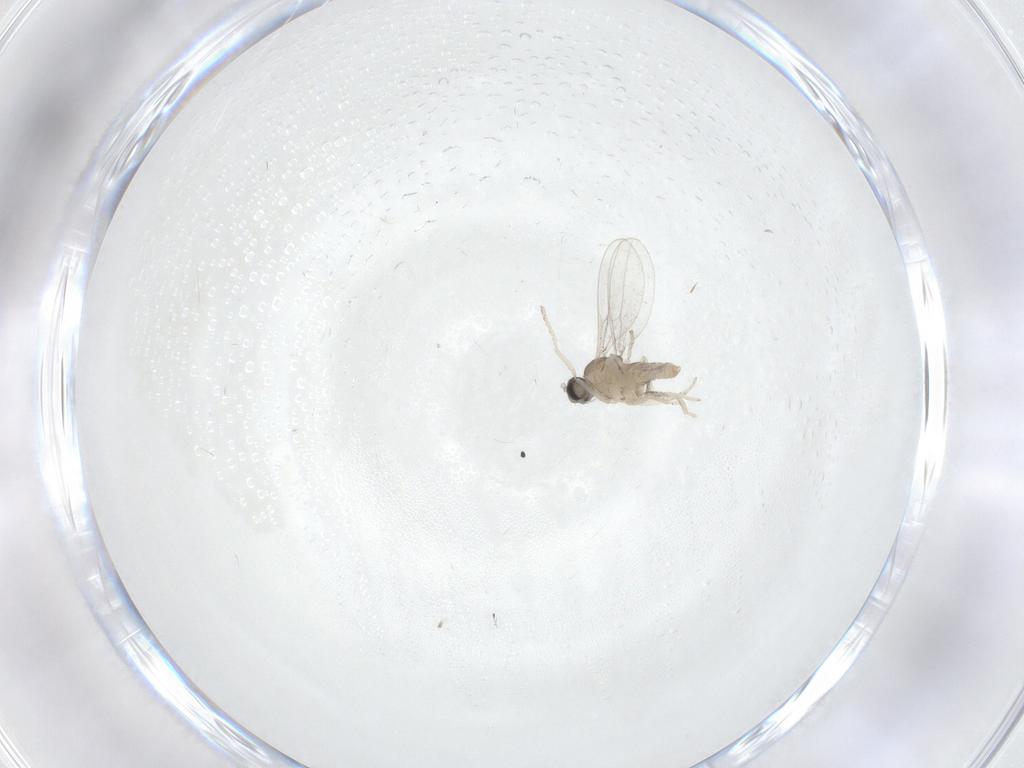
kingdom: Animalia
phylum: Arthropoda
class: Insecta
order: Diptera
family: Cecidomyiidae
